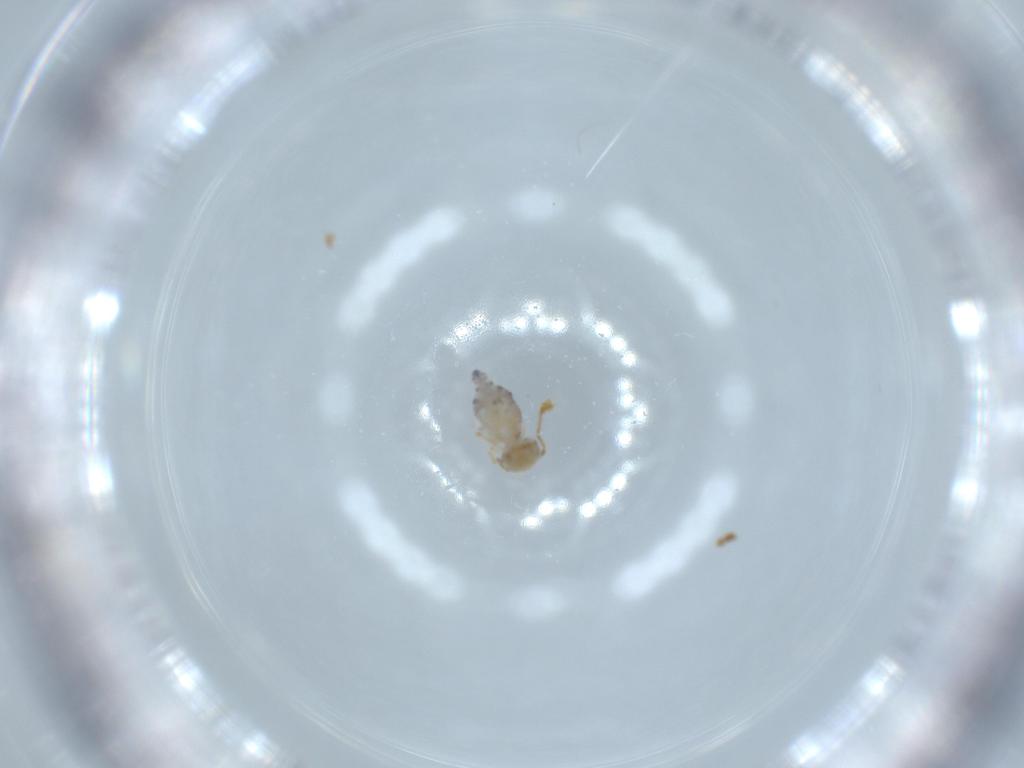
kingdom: Animalia
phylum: Arthropoda
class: Collembola
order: Symphypleona
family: Bourletiellidae
